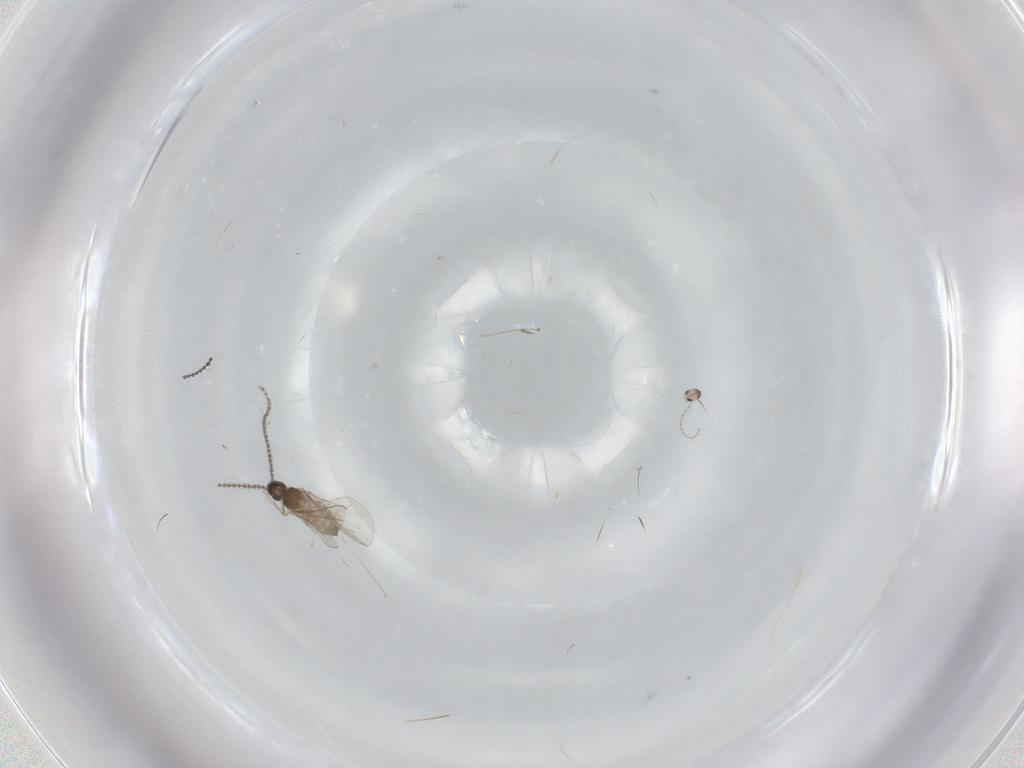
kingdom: Animalia
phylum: Arthropoda
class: Insecta
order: Diptera
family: Cecidomyiidae
